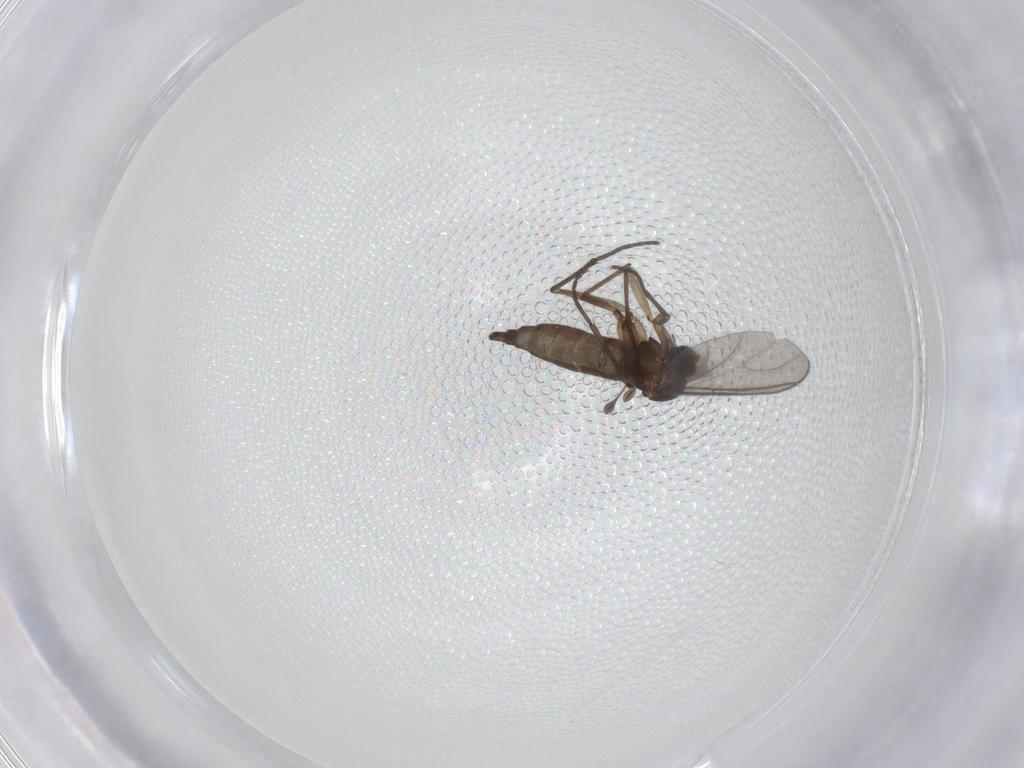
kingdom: Animalia
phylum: Arthropoda
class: Insecta
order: Diptera
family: Sciaridae
